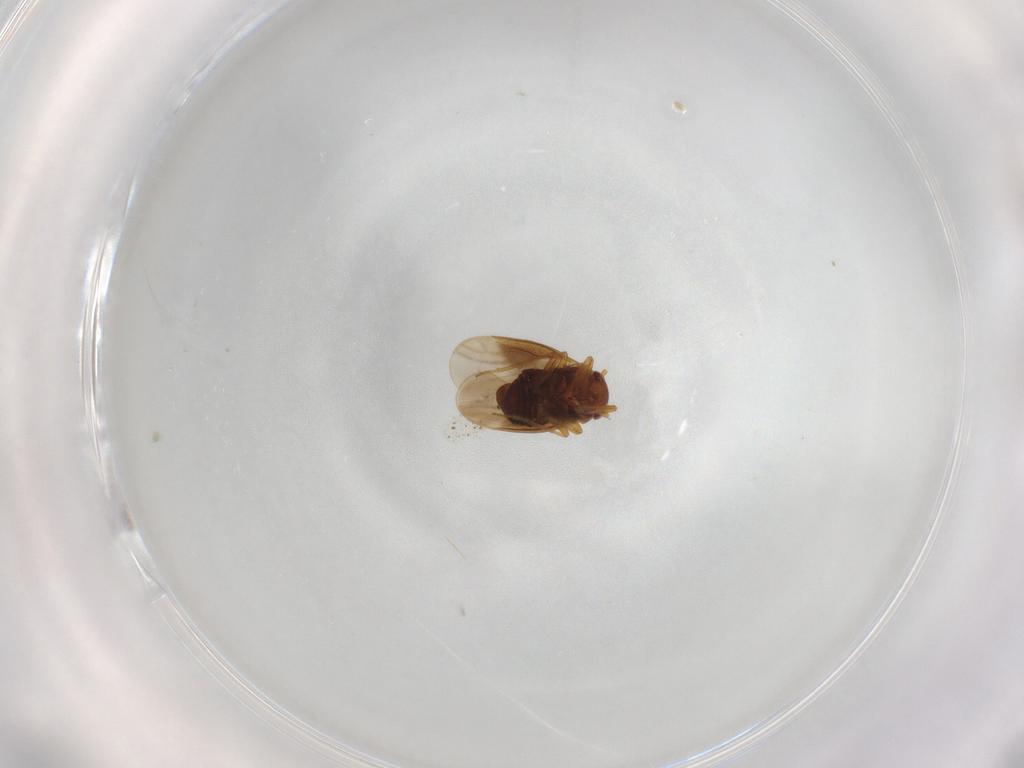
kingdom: Animalia
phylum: Arthropoda
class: Insecta
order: Hemiptera
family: Schizopteridae
